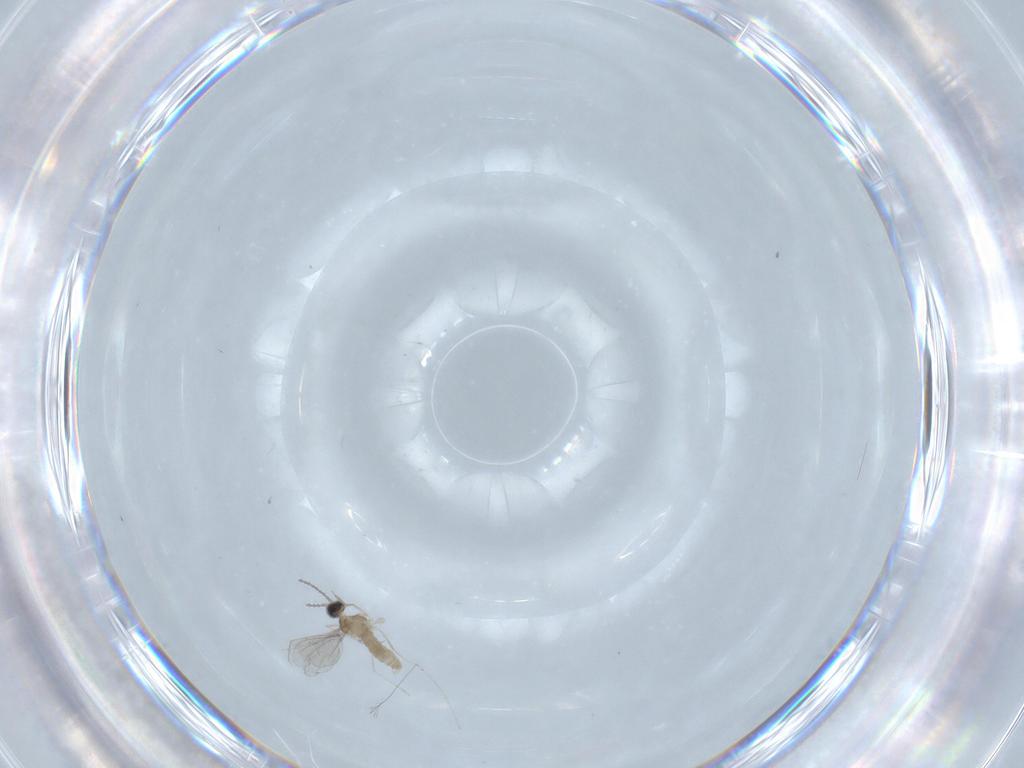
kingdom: Animalia
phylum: Arthropoda
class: Insecta
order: Diptera
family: Cecidomyiidae
